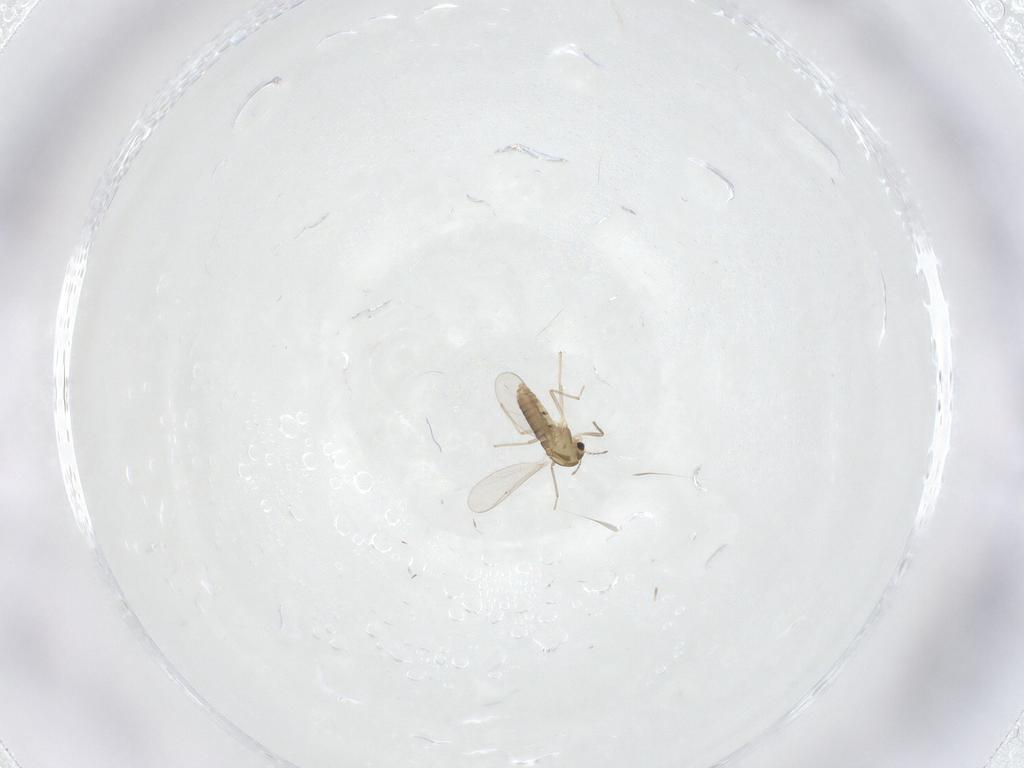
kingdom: Animalia
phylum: Arthropoda
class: Insecta
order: Diptera
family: Chironomidae
